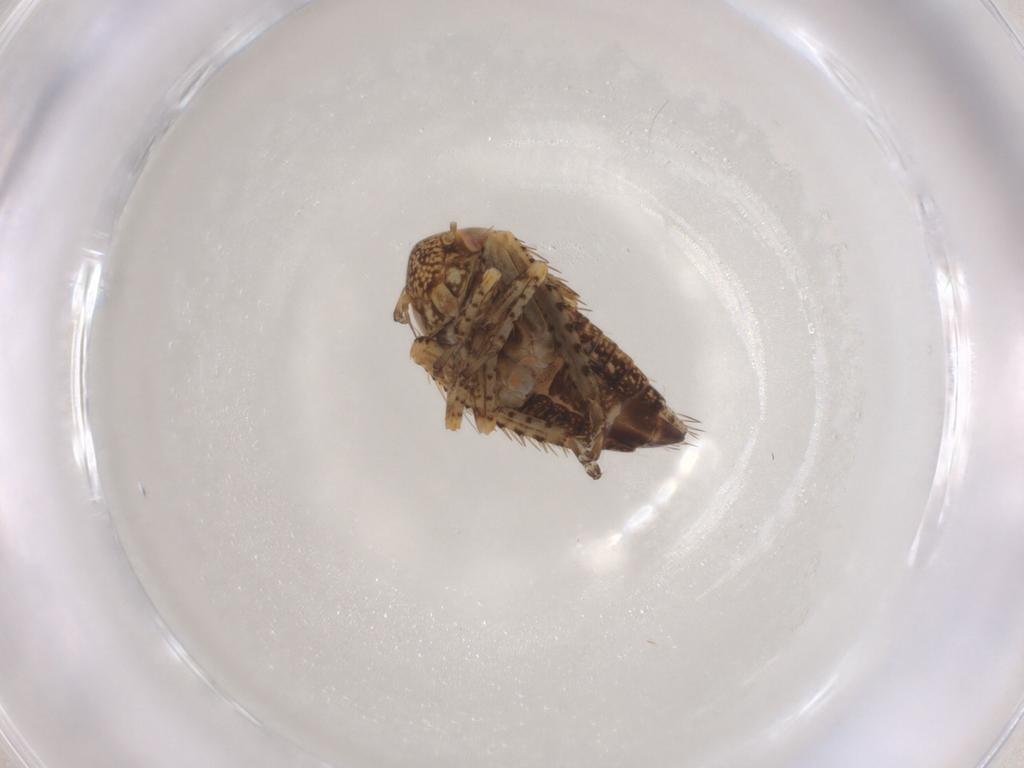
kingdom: Animalia
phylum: Arthropoda
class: Insecta
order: Hemiptera
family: Cicadellidae
